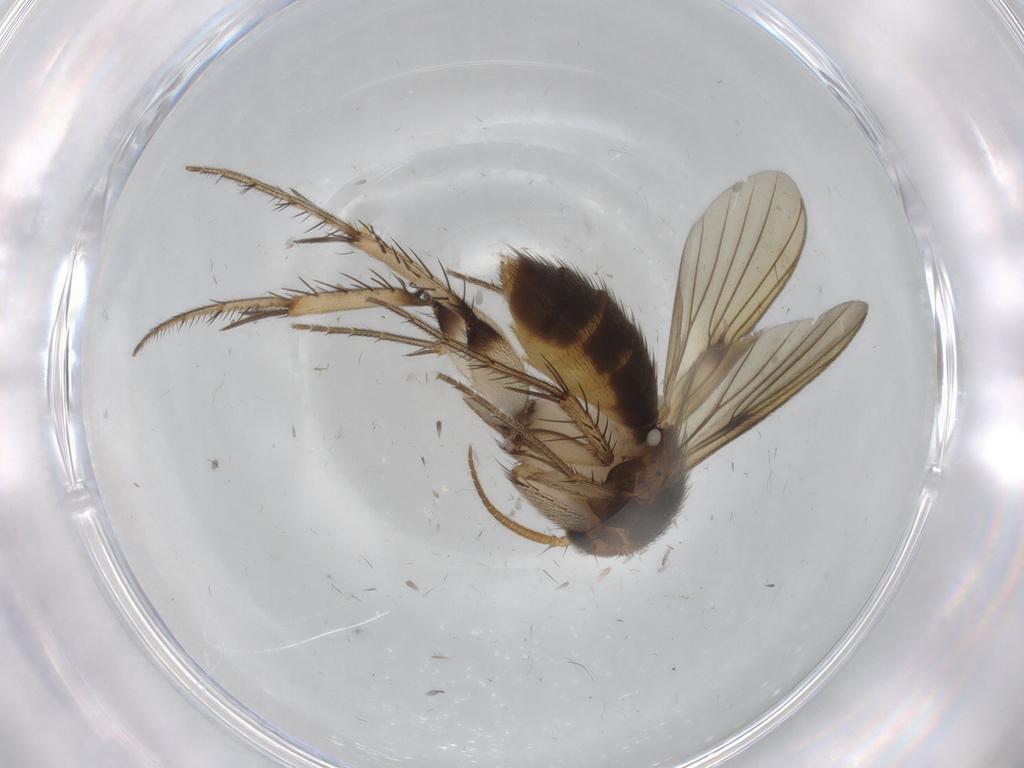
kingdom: Animalia
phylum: Arthropoda
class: Insecta
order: Diptera
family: Mycetophilidae
